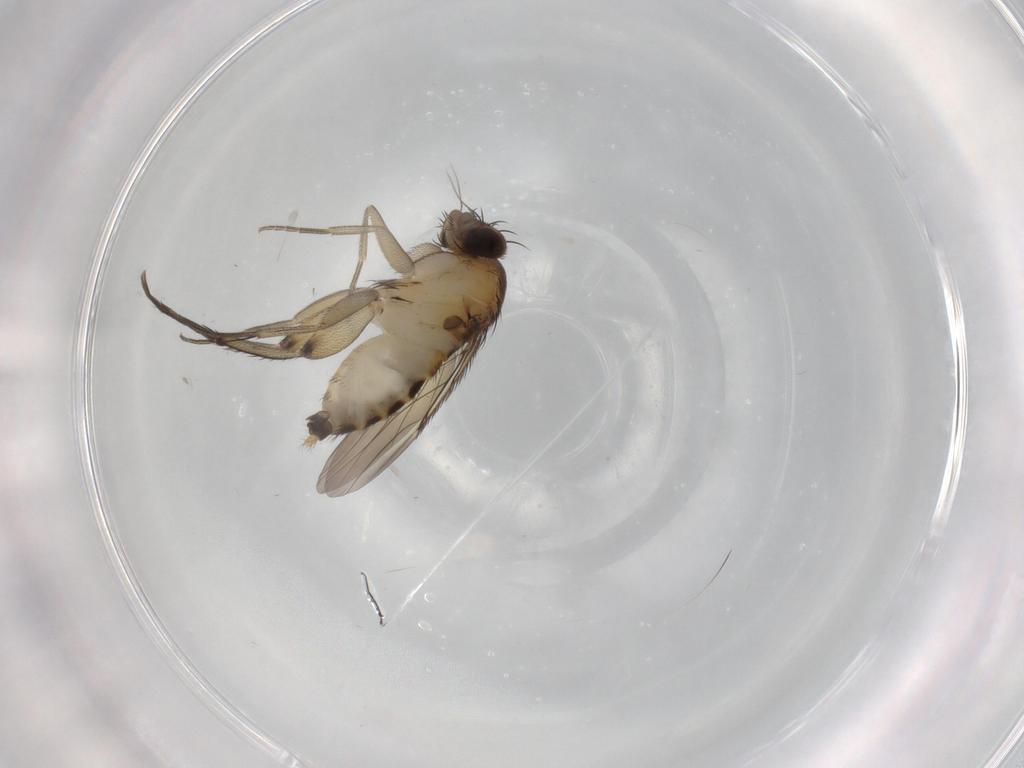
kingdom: Animalia
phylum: Arthropoda
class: Insecta
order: Diptera
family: Phoridae
